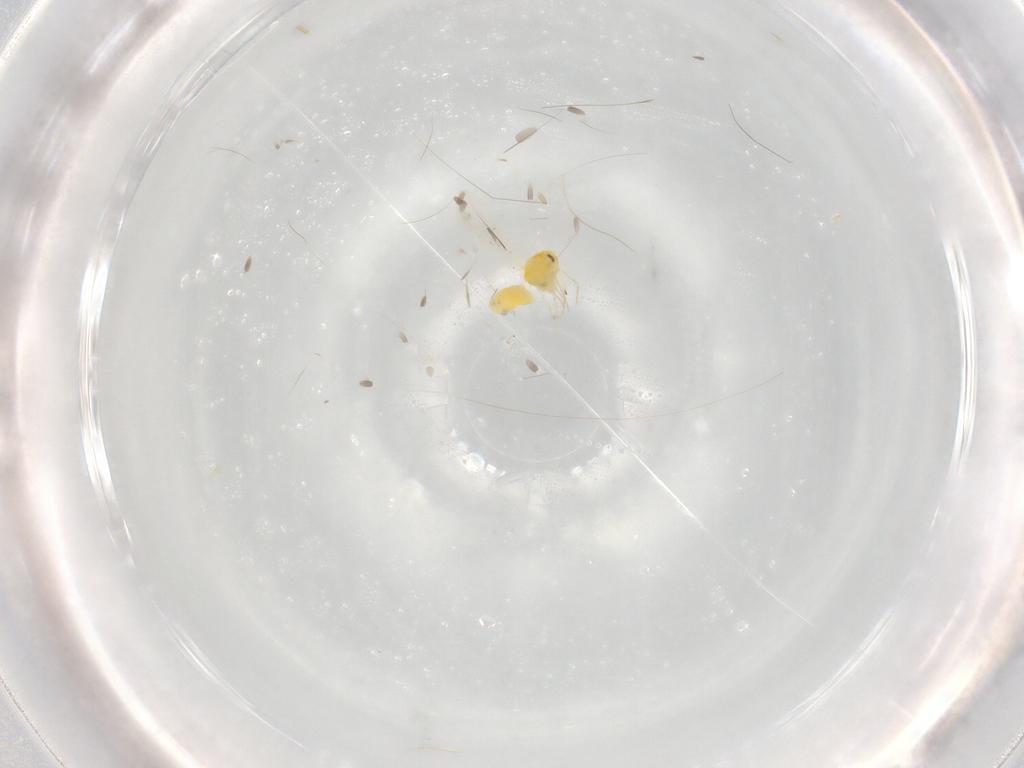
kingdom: Animalia
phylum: Arthropoda
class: Insecta
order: Hemiptera
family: Aleyrodidae
